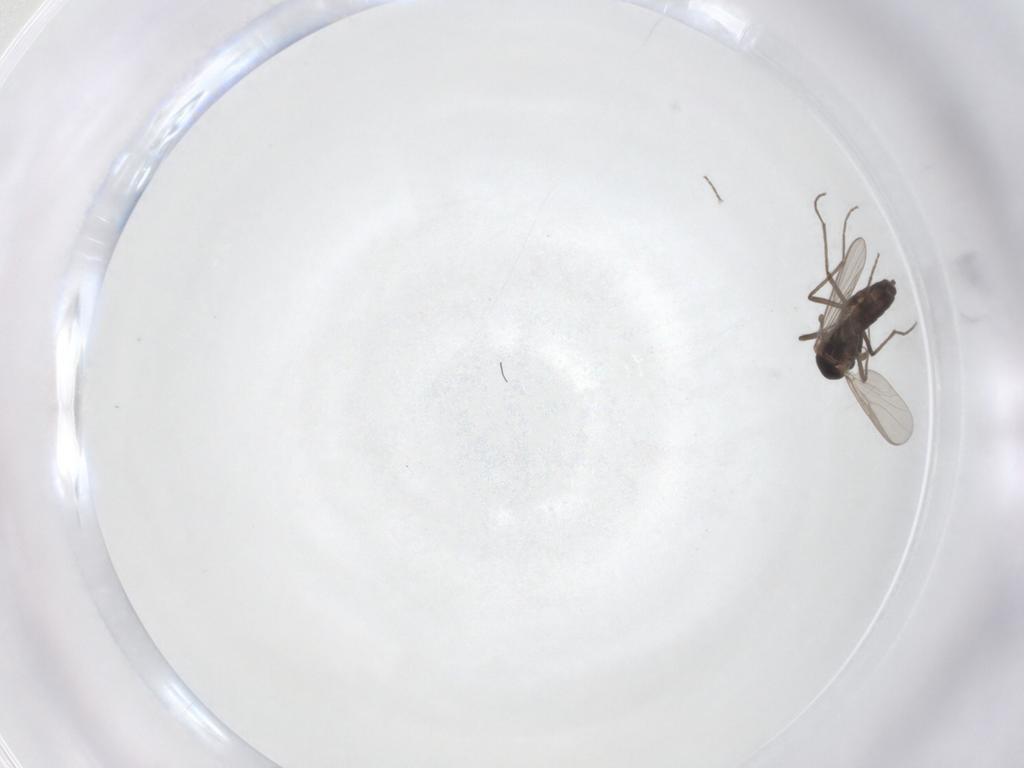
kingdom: Animalia
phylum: Arthropoda
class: Insecta
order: Diptera
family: Chironomidae
